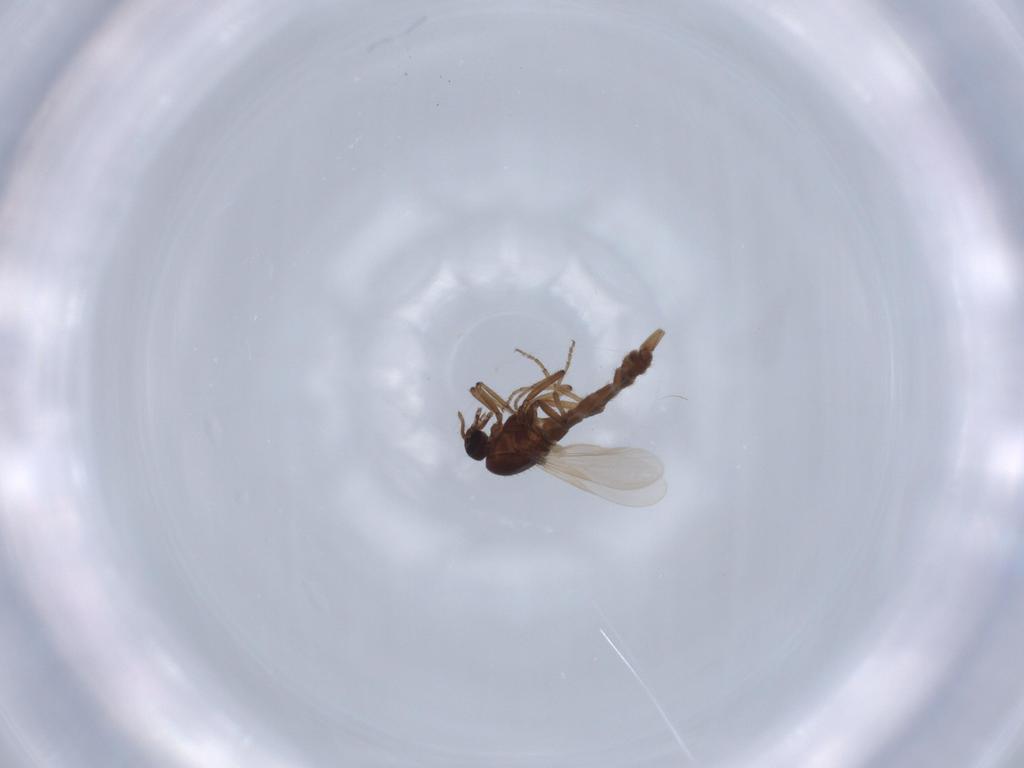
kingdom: Animalia
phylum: Arthropoda
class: Insecta
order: Diptera
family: Ceratopogonidae
